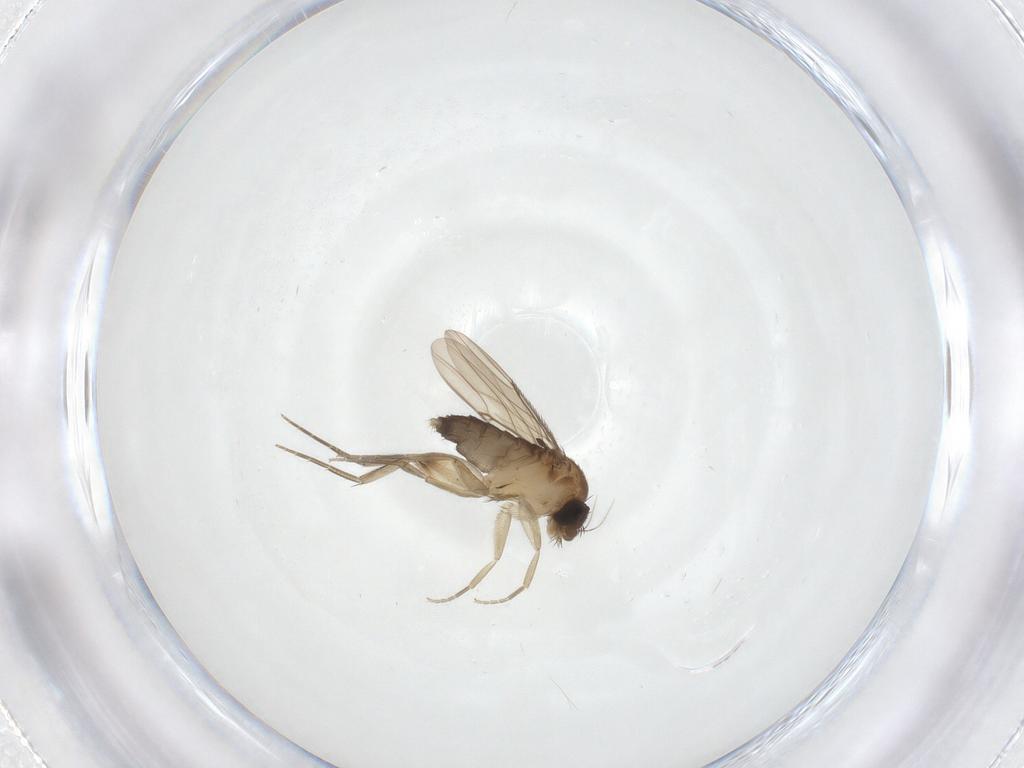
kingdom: Animalia
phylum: Arthropoda
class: Insecta
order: Diptera
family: Phoridae
